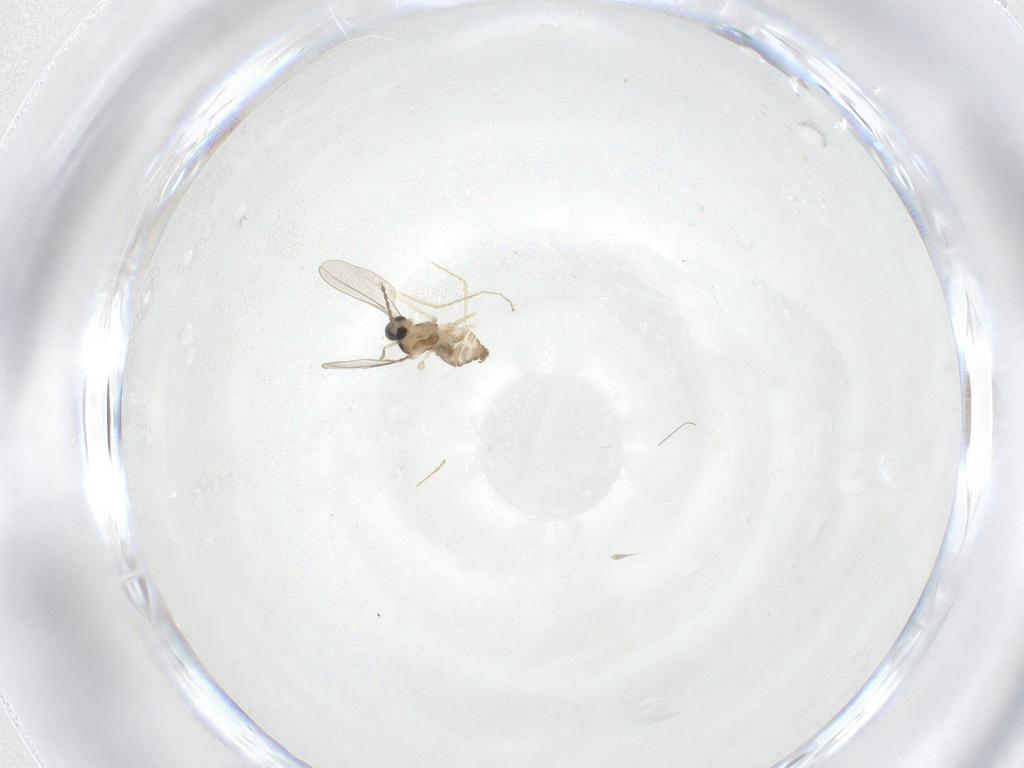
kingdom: Animalia
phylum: Arthropoda
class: Insecta
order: Diptera
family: Cecidomyiidae
